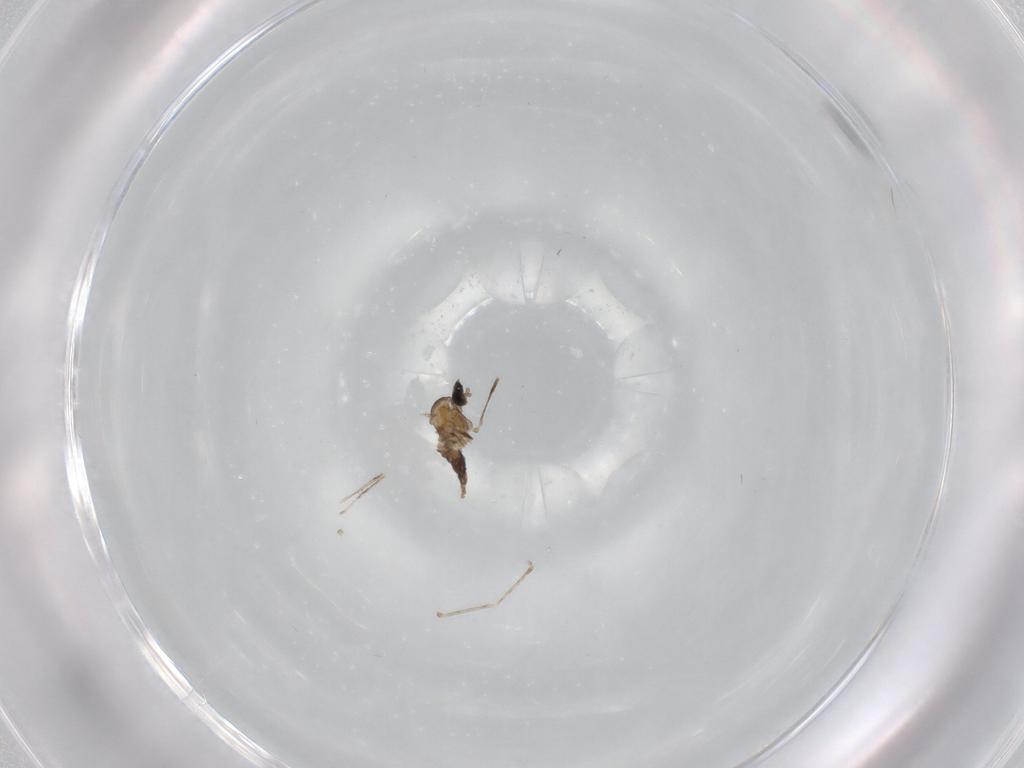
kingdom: Animalia
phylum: Arthropoda
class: Insecta
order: Diptera
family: Cecidomyiidae
